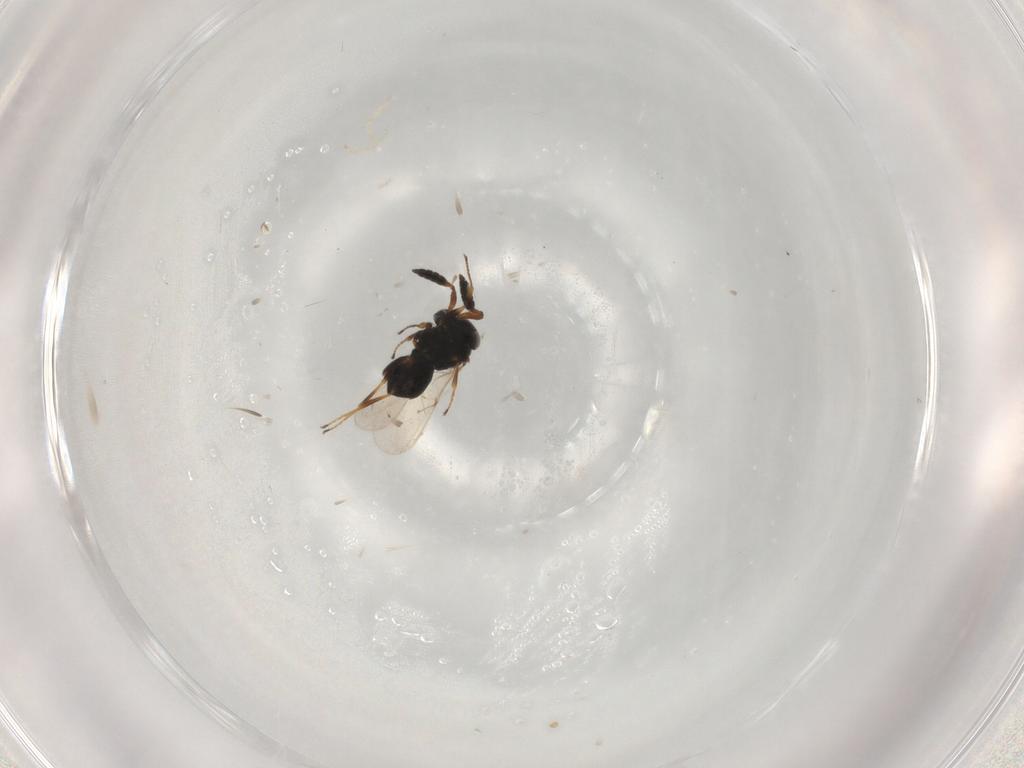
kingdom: Animalia
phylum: Arthropoda
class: Insecta
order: Hymenoptera
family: Scelionidae
